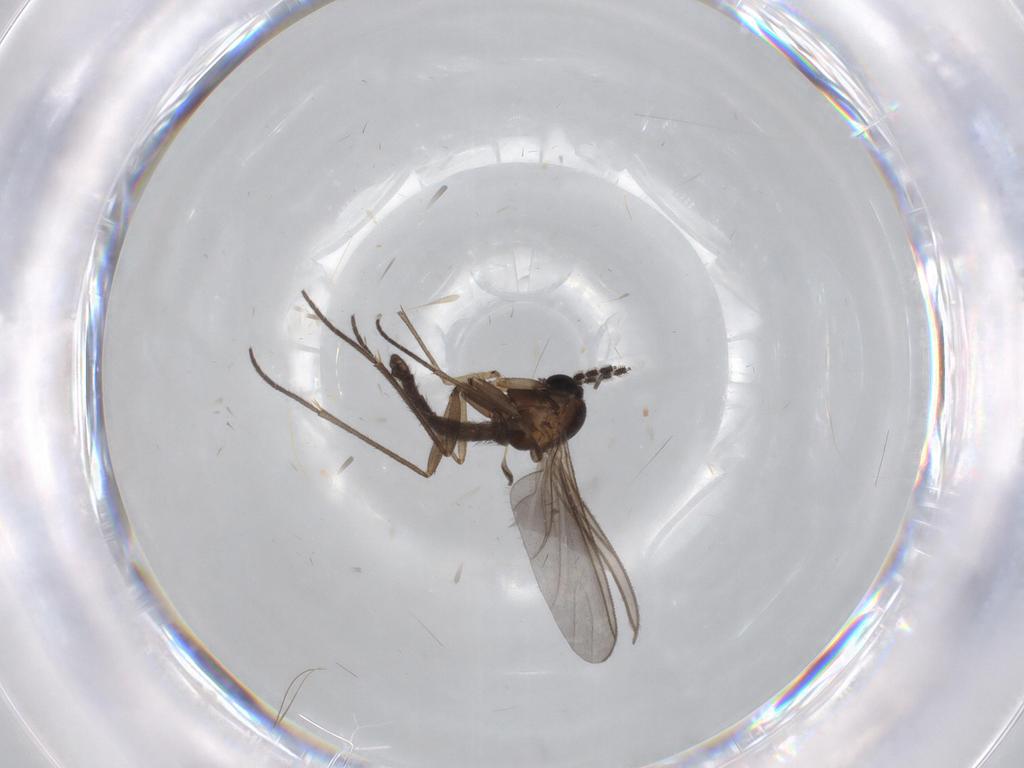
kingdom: Animalia
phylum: Arthropoda
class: Insecta
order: Diptera
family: Sciaridae
